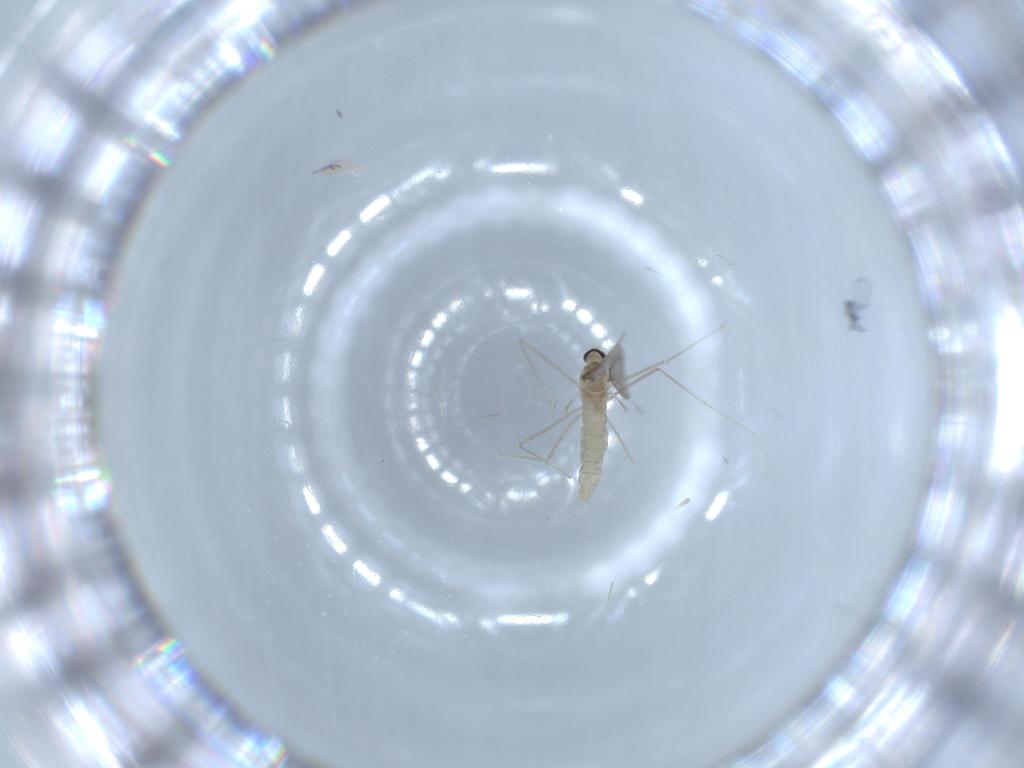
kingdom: Animalia
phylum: Arthropoda
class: Insecta
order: Diptera
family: Cecidomyiidae
